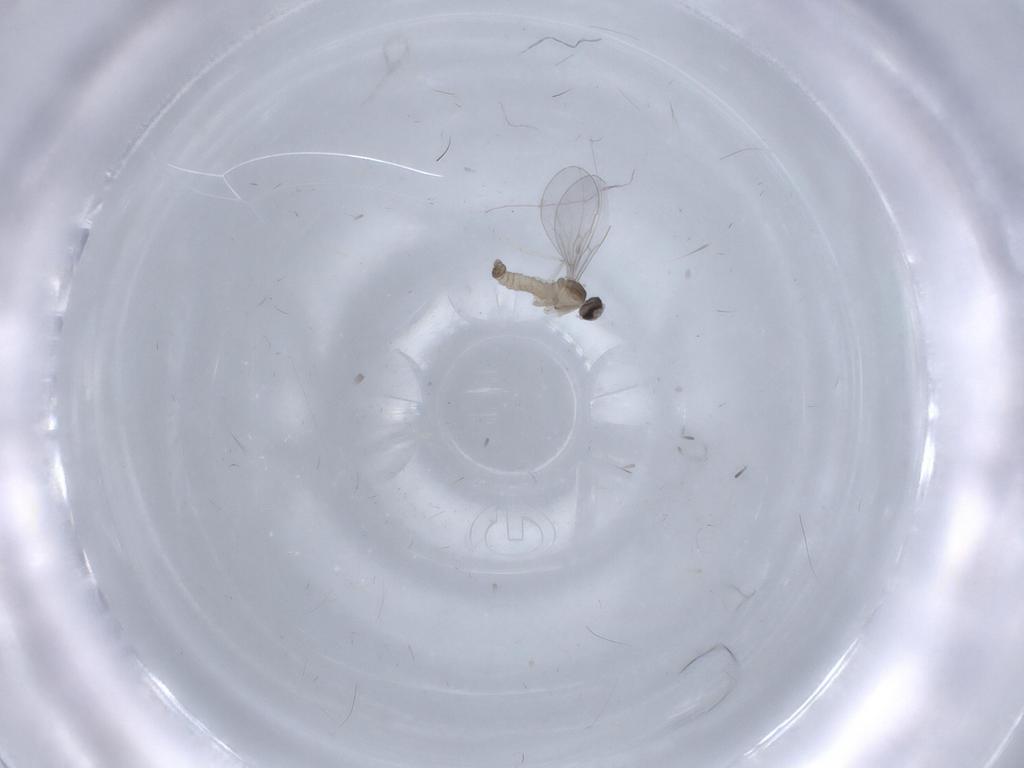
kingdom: Animalia
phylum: Arthropoda
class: Insecta
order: Diptera
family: Cecidomyiidae
